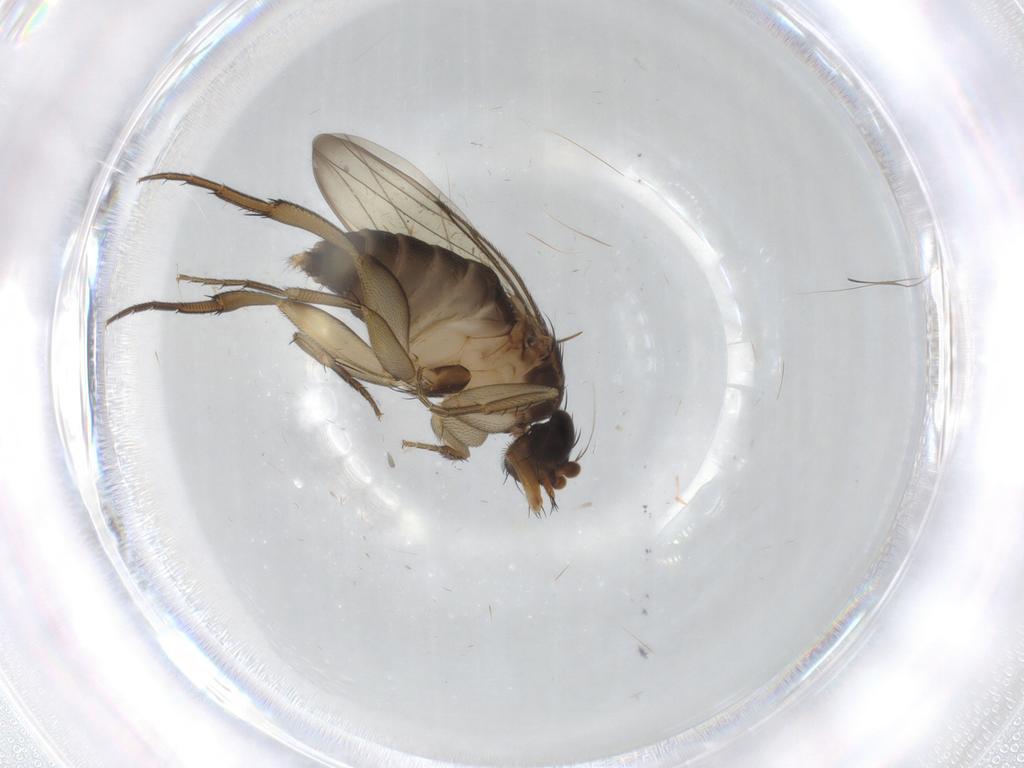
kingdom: Animalia
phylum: Arthropoda
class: Insecta
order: Diptera
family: Phoridae
